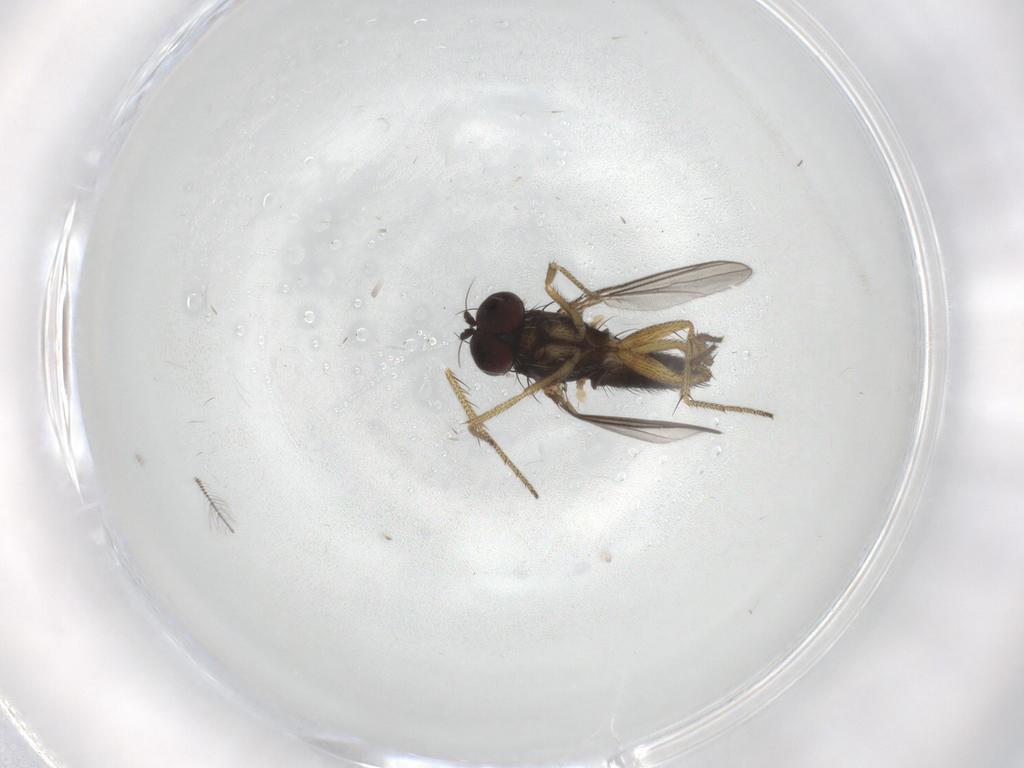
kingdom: Animalia
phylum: Arthropoda
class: Insecta
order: Diptera
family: Dolichopodidae
